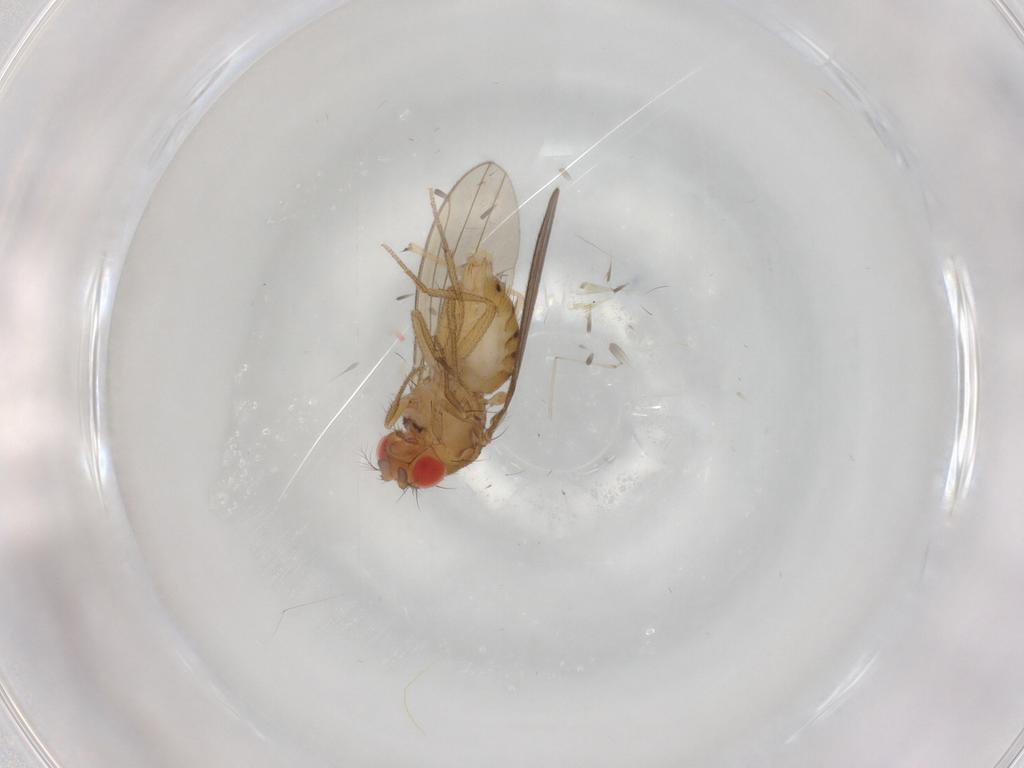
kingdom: Animalia
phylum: Arthropoda
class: Insecta
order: Diptera
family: Drosophilidae
